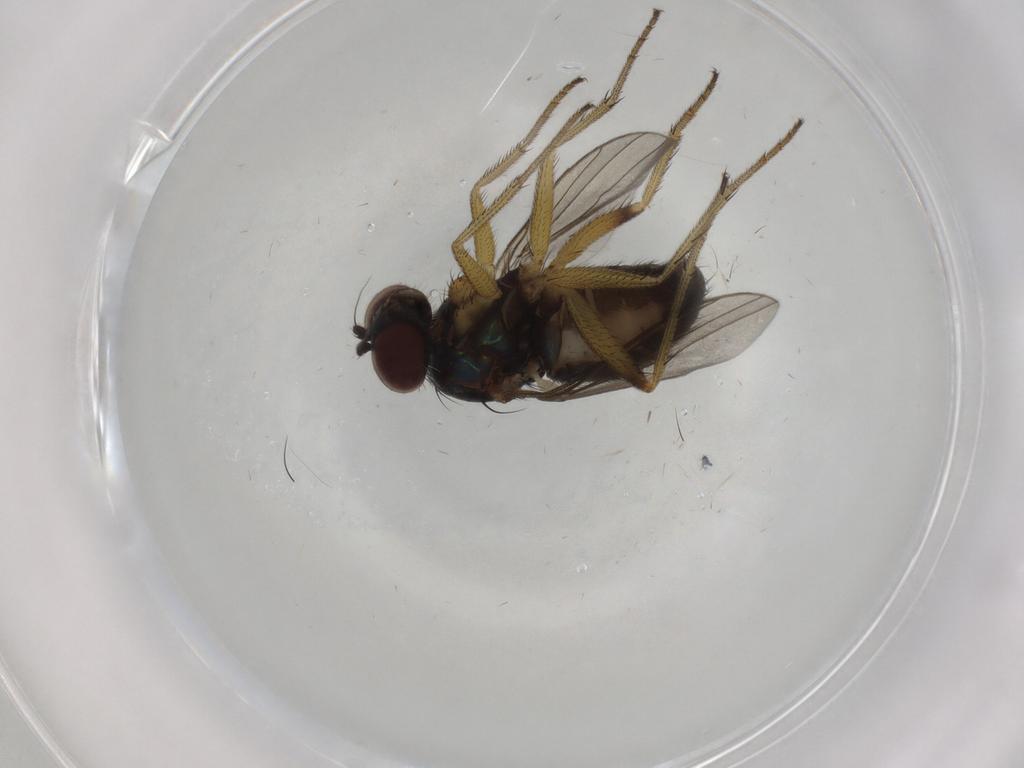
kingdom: Animalia
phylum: Arthropoda
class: Insecta
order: Diptera
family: Dolichopodidae
